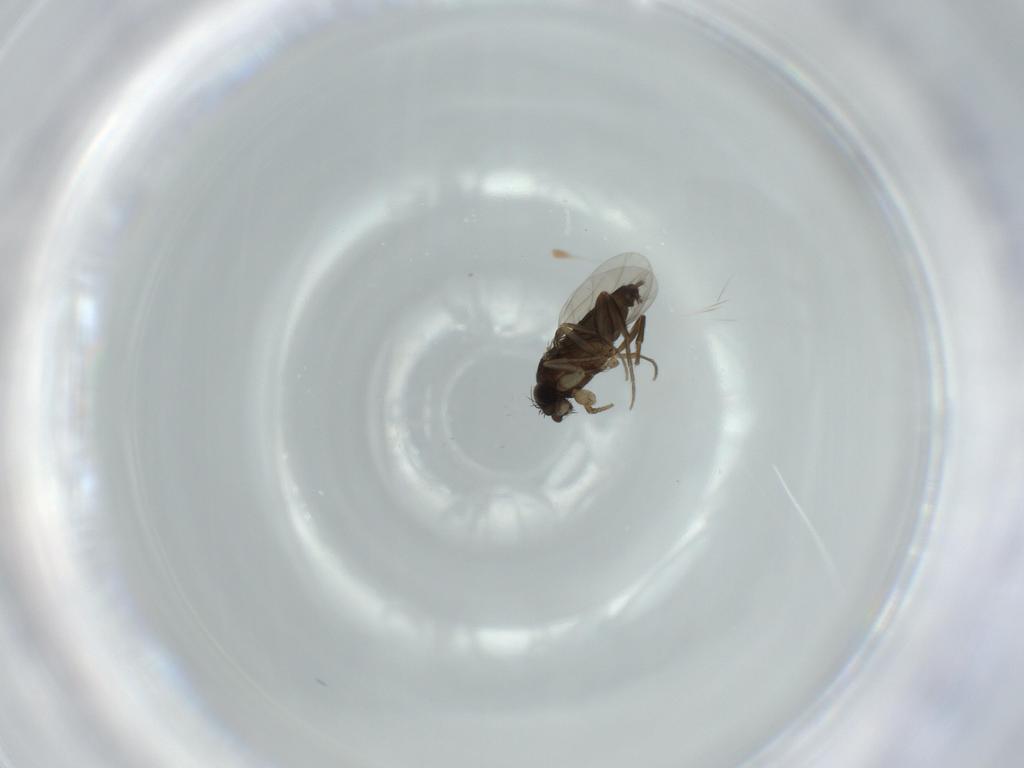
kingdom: Animalia
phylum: Arthropoda
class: Insecta
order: Diptera
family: Phoridae
